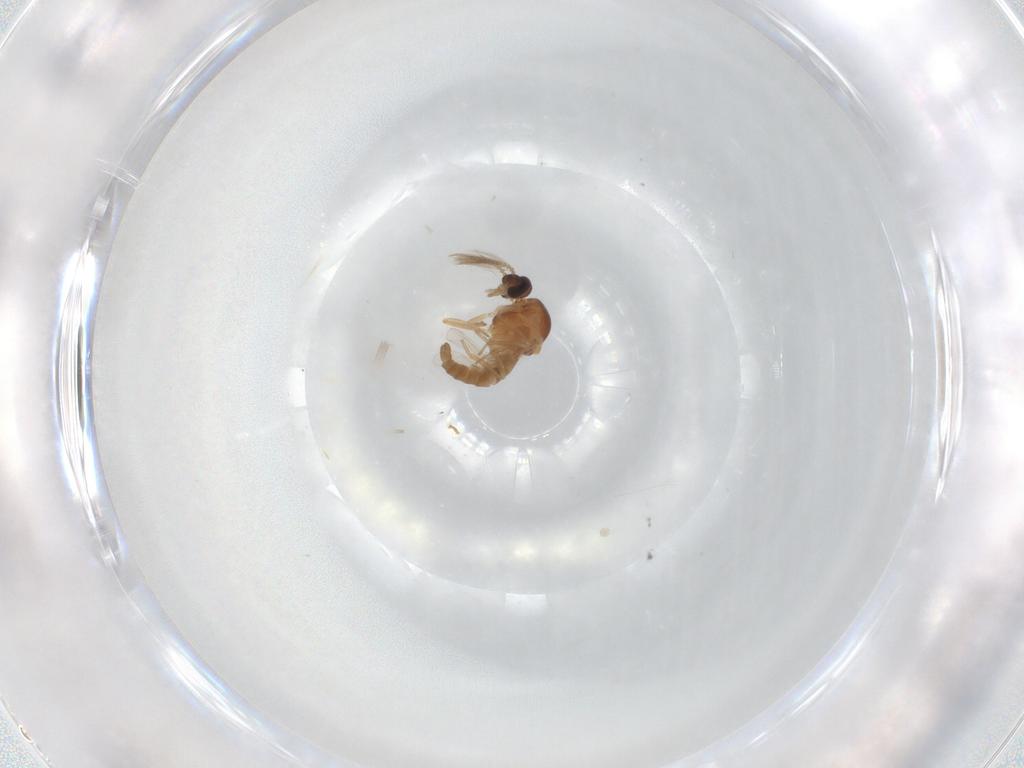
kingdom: Animalia
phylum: Arthropoda
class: Insecta
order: Diptera
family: Ceratopogonidae
